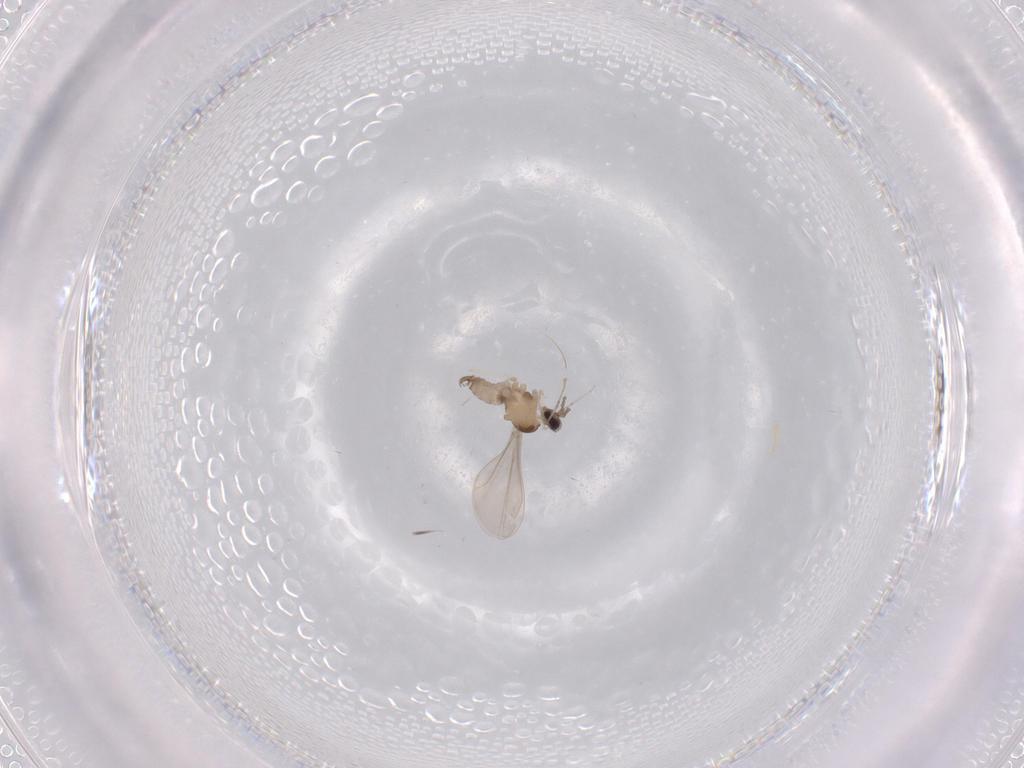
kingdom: Animalia
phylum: Arthropoda
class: Insecta
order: Diptera
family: Cecidomyiidae
